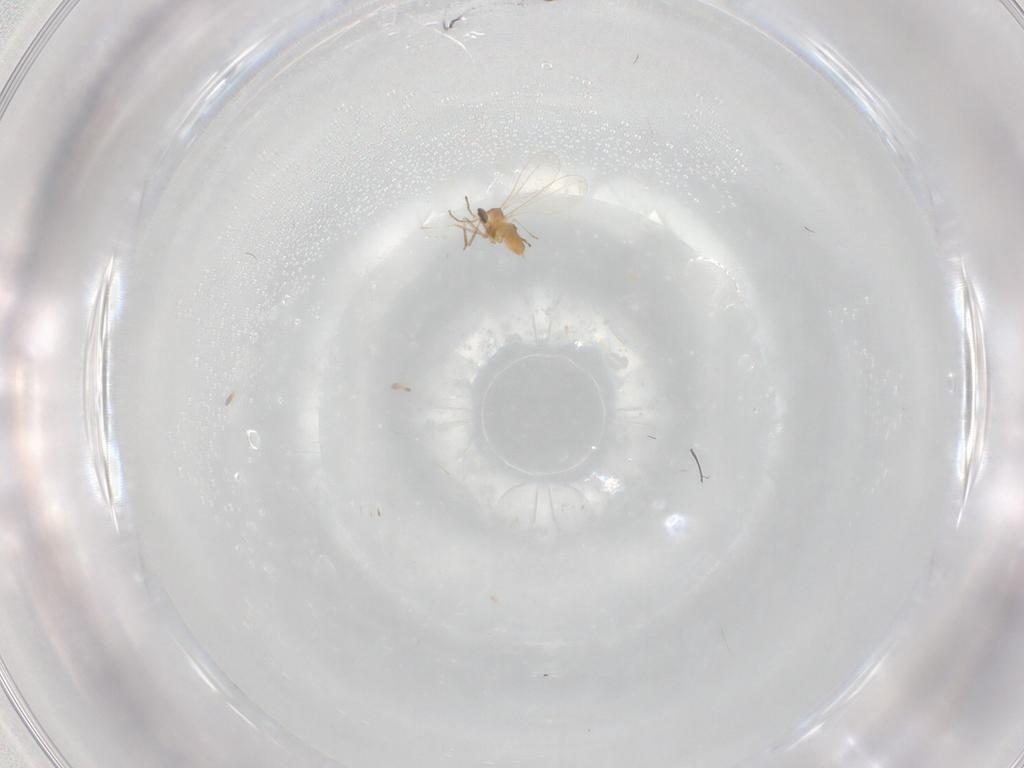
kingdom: Animalia
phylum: Arthropoda
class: Insecta
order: Diptera
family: Cecidomyiidae
